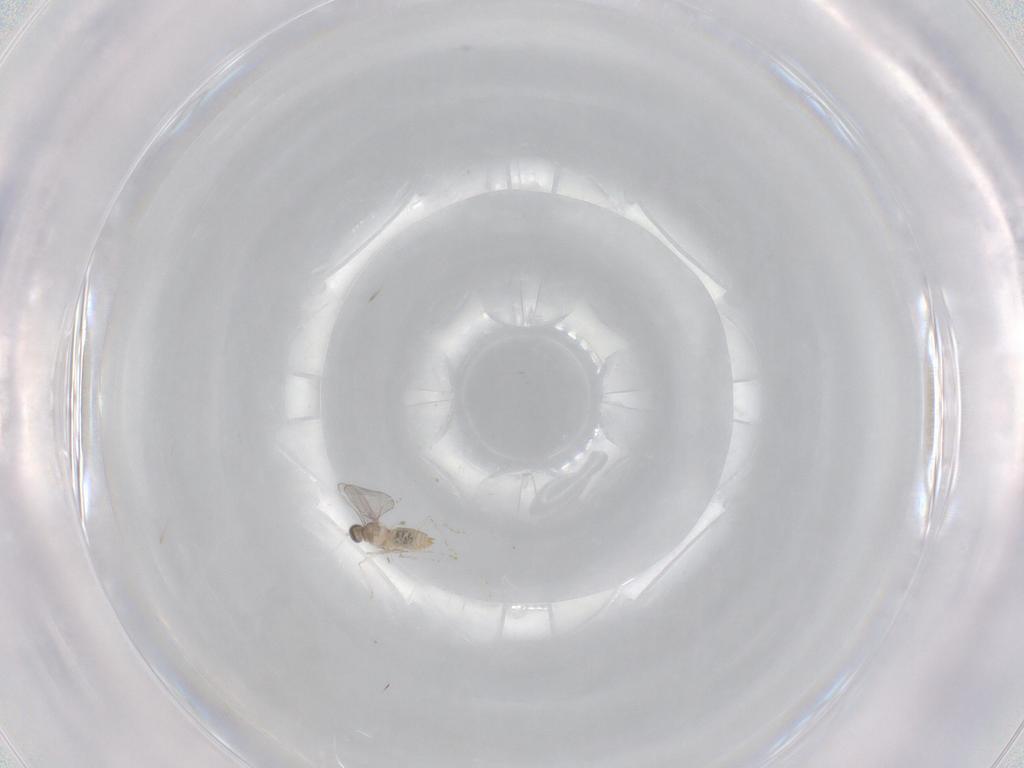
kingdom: Animalia
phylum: Arthropoda
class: Insecta
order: Diptera
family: Cecidomyiidae
